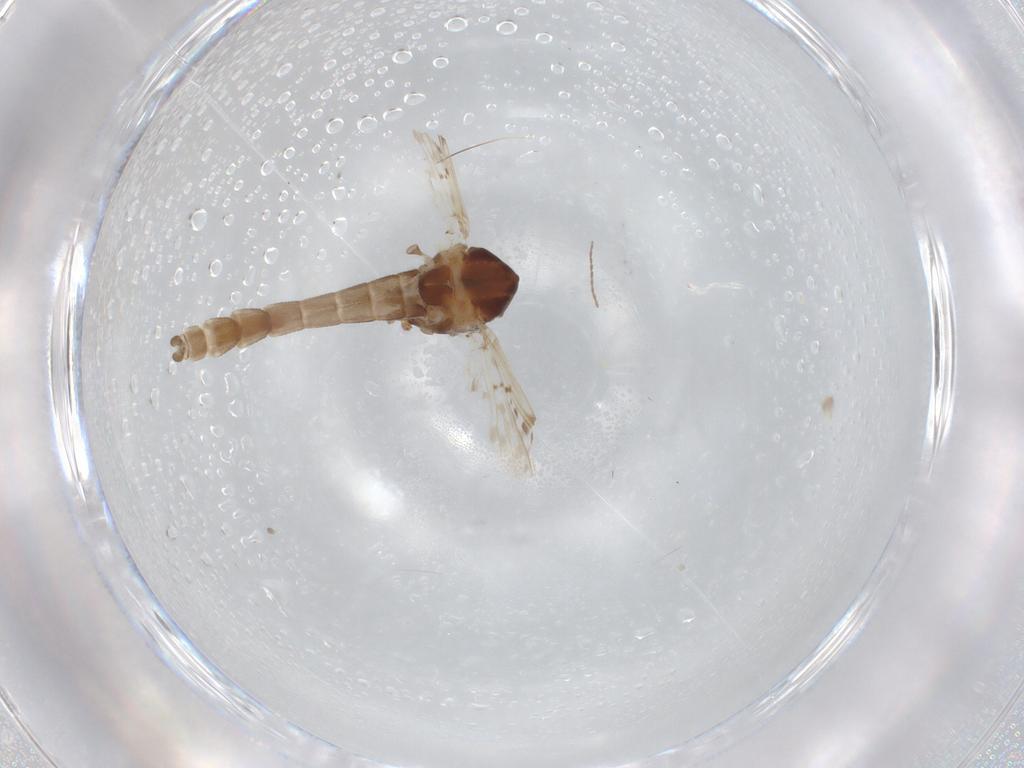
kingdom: Animalia
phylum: Arthropoda
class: Insecta
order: Diptera
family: Chironomidae
